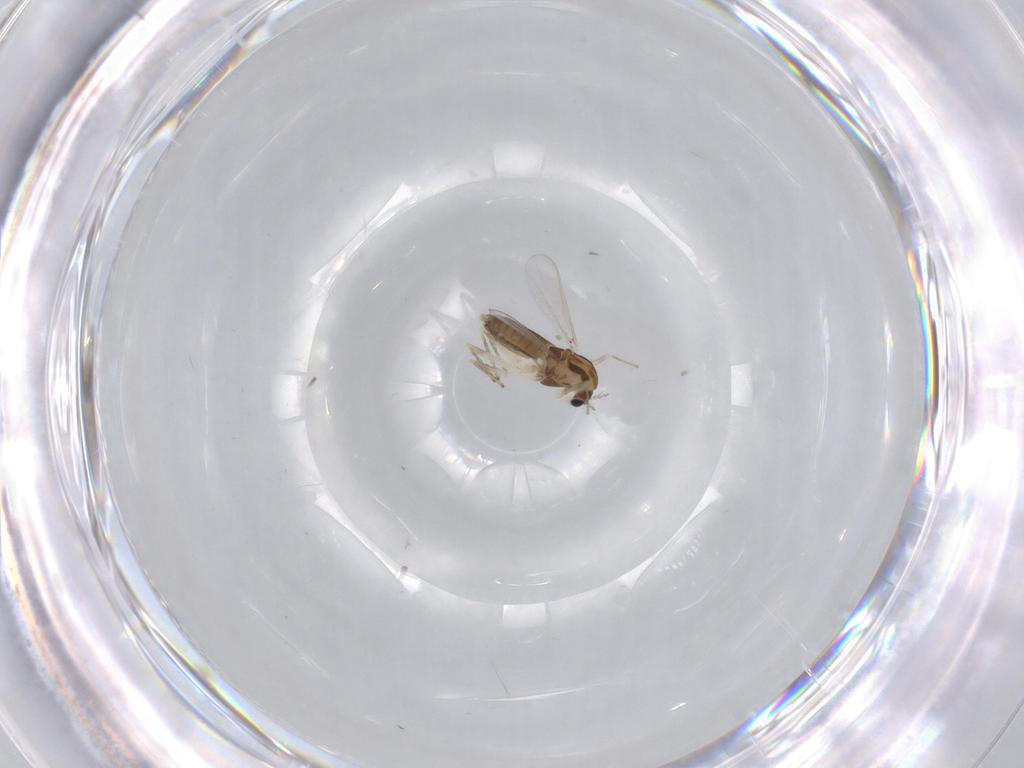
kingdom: Animalia
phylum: Arthropoda
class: Insecta
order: Diptera
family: Chironomidae
